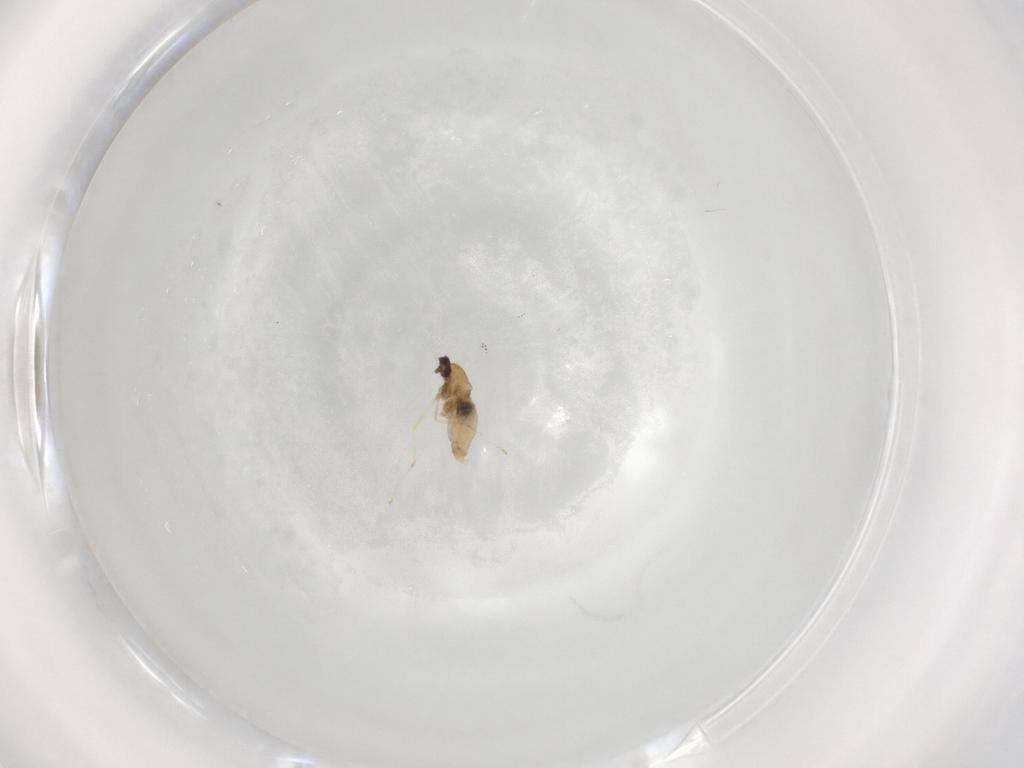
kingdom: Animalia
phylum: Arthropoda
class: Insecta
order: Diptera
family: Cecidomyiidae
